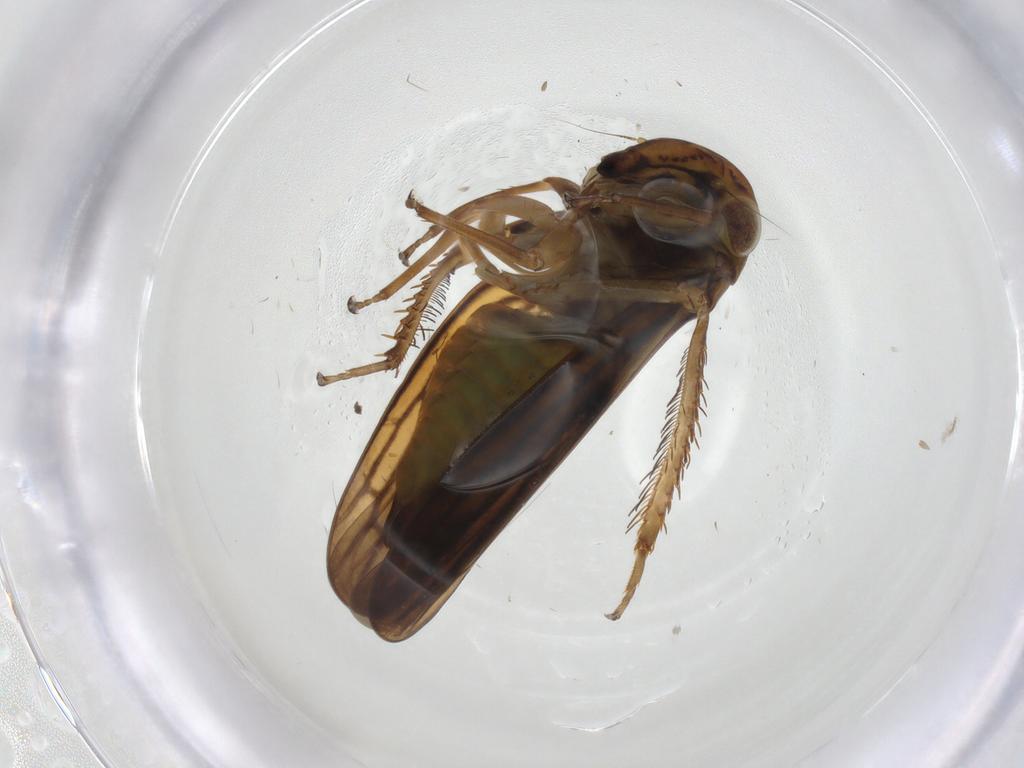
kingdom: Animalia
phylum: Arthropoda
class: Insecta
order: Hemiptera
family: Cicadellidae
